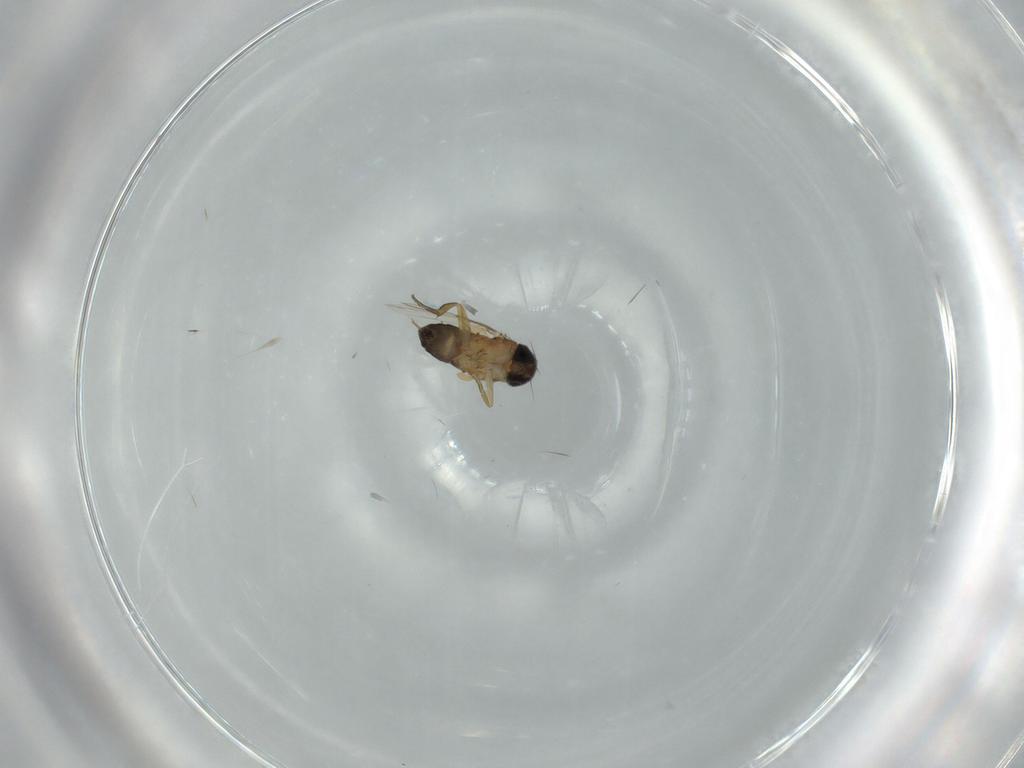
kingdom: Animalia
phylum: Arthropoda
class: Insecta
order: Diptera
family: Phoridae
